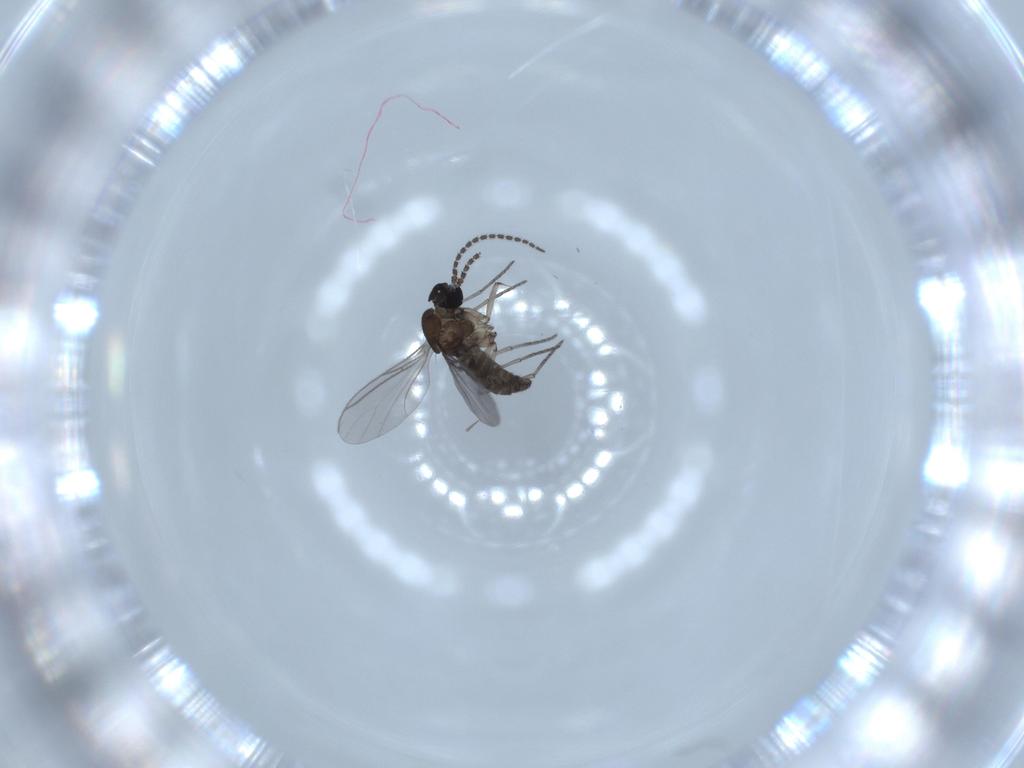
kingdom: Animalia
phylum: Arthropoda
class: Insecta
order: Diptera
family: Sciaridae
